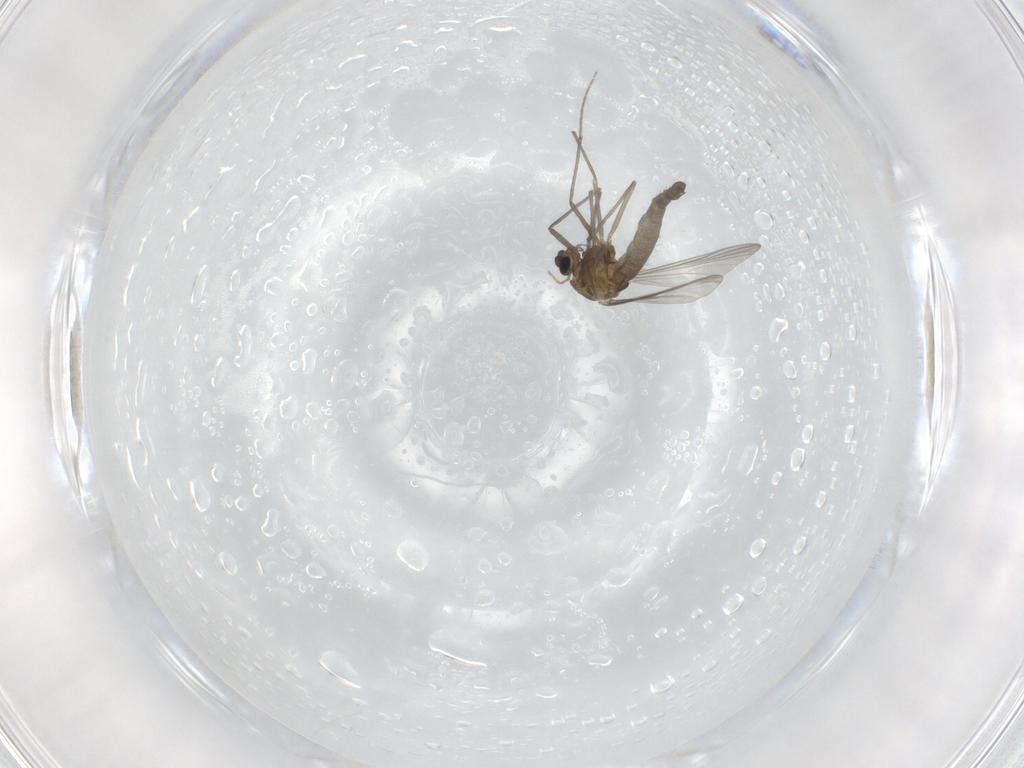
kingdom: Animalia
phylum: Arthropoda
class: Insecta
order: Diptera
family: Chironomidae
